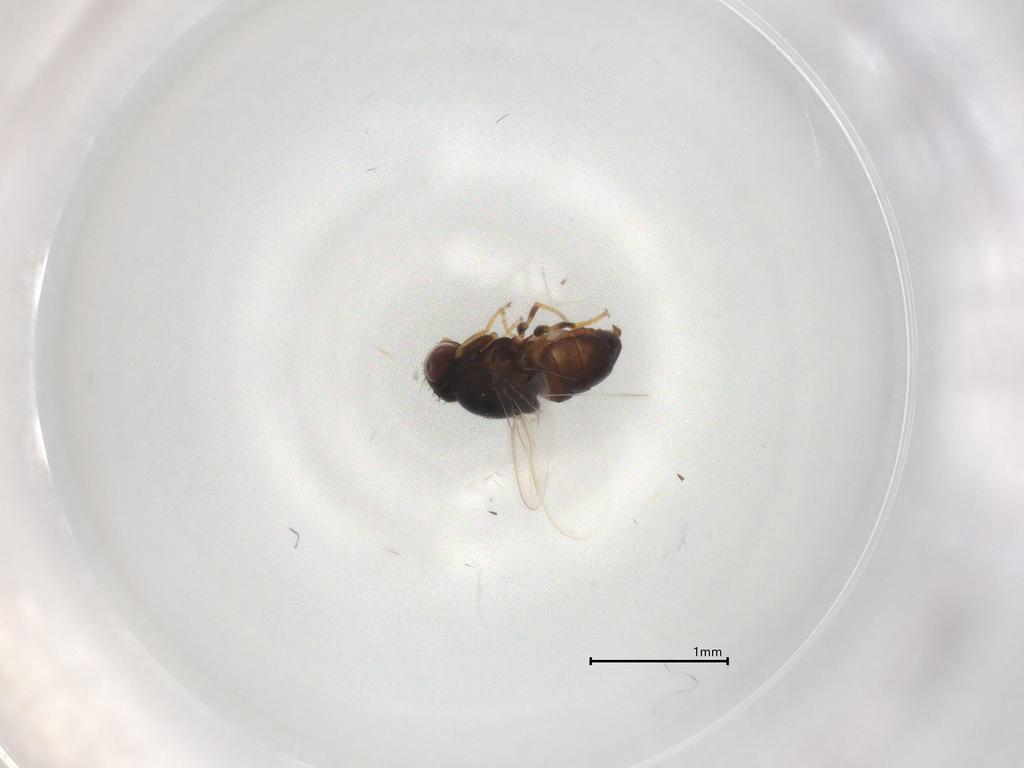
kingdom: Animalia
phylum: Arthropoda
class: Insecta
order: Diptera
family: Chloropidae
